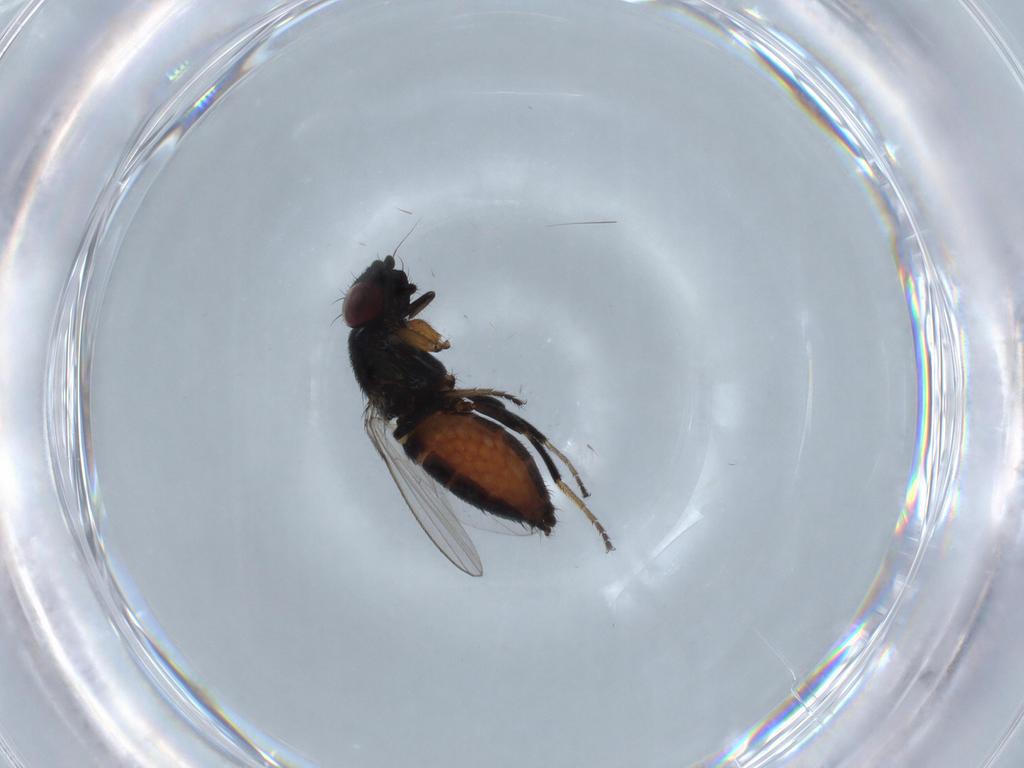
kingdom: Animalia
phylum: Arthropoda
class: Insecta
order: Diptera
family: Milichiidae
